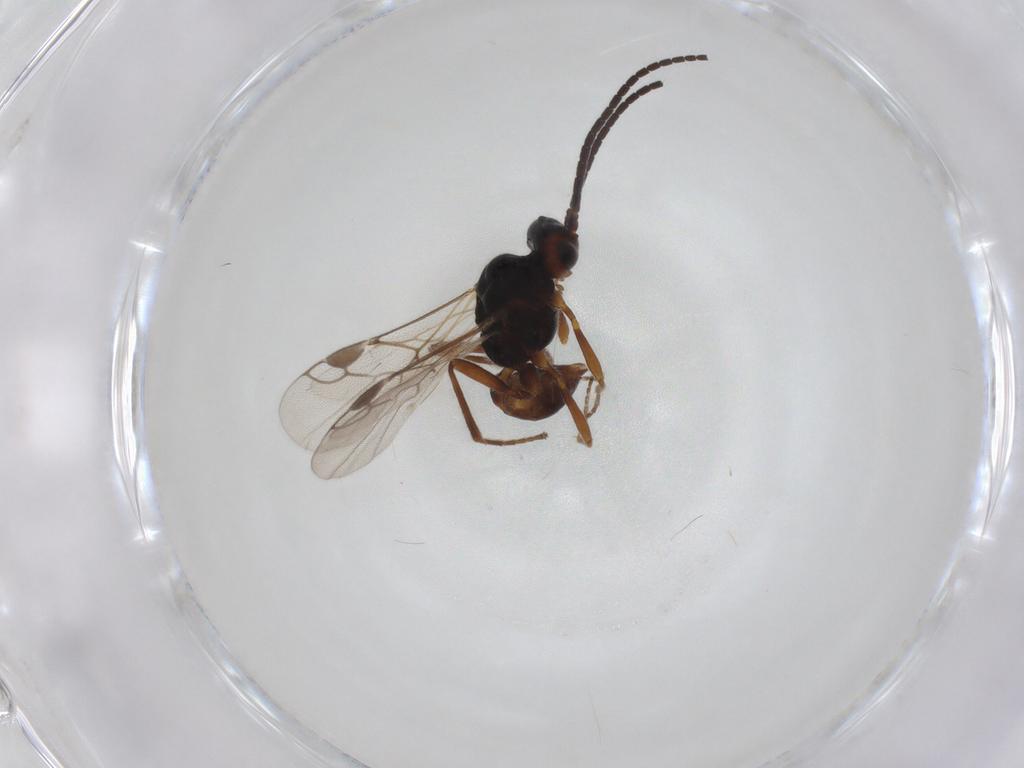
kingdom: Animalia
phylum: Arthropoda
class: Insecta
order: Hymenoptera
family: Braconidae
